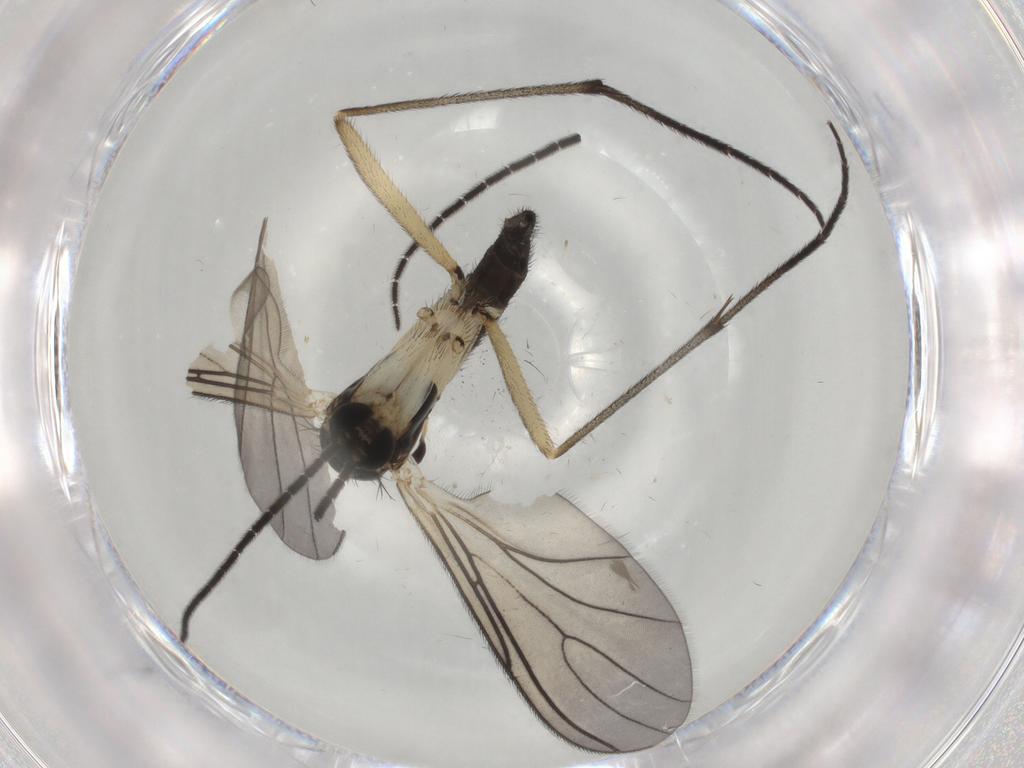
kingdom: Animalia
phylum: Arthropoda
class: Insecta
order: Diptera
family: Sciaridae
